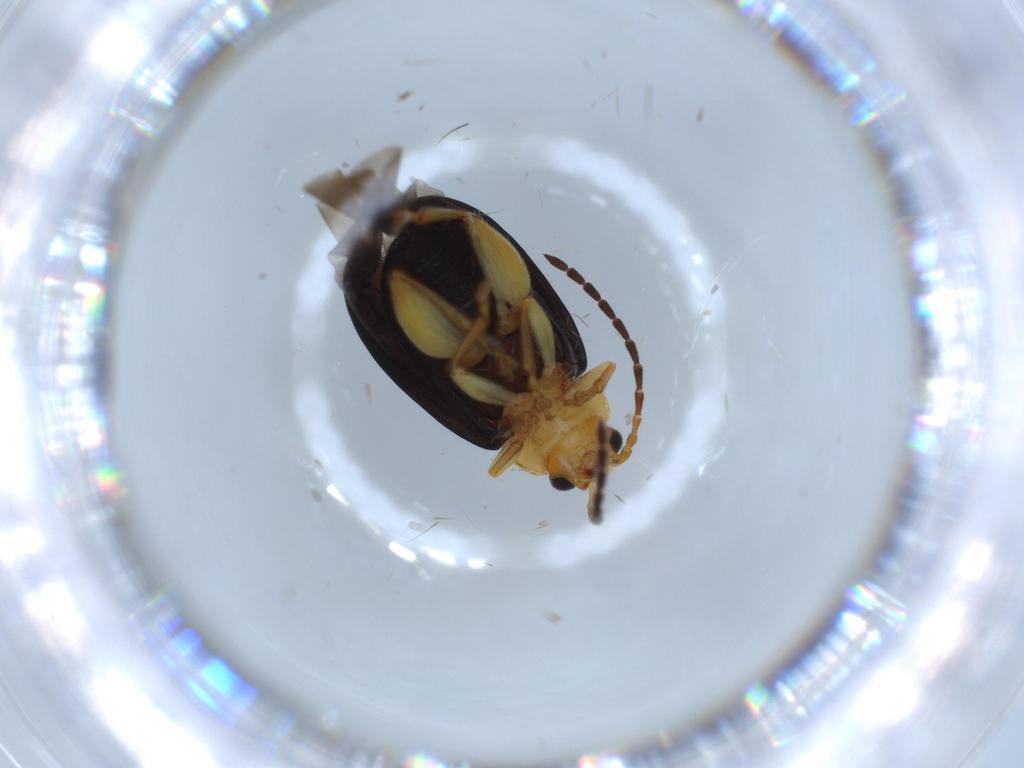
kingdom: Animalia
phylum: Arthropoda
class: Insecta
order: Coleoptera
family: Chrysomelidae
